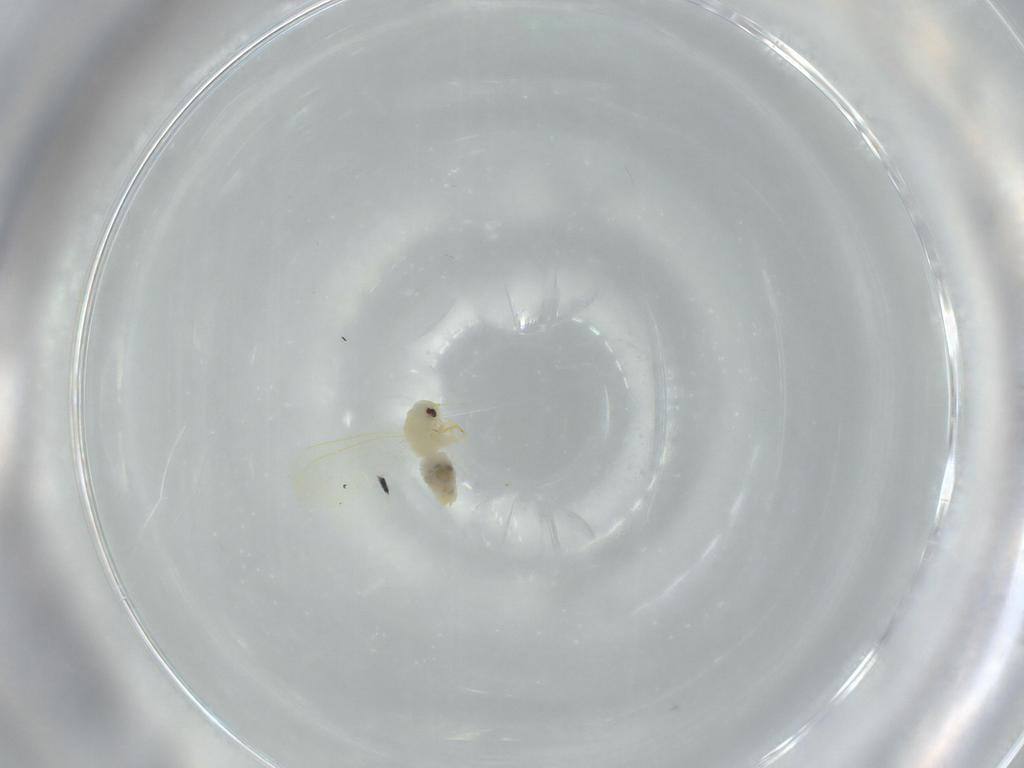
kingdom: Animalia
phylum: Arthropoda
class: Insecta
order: Hemiptera
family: Aleyrodidae
